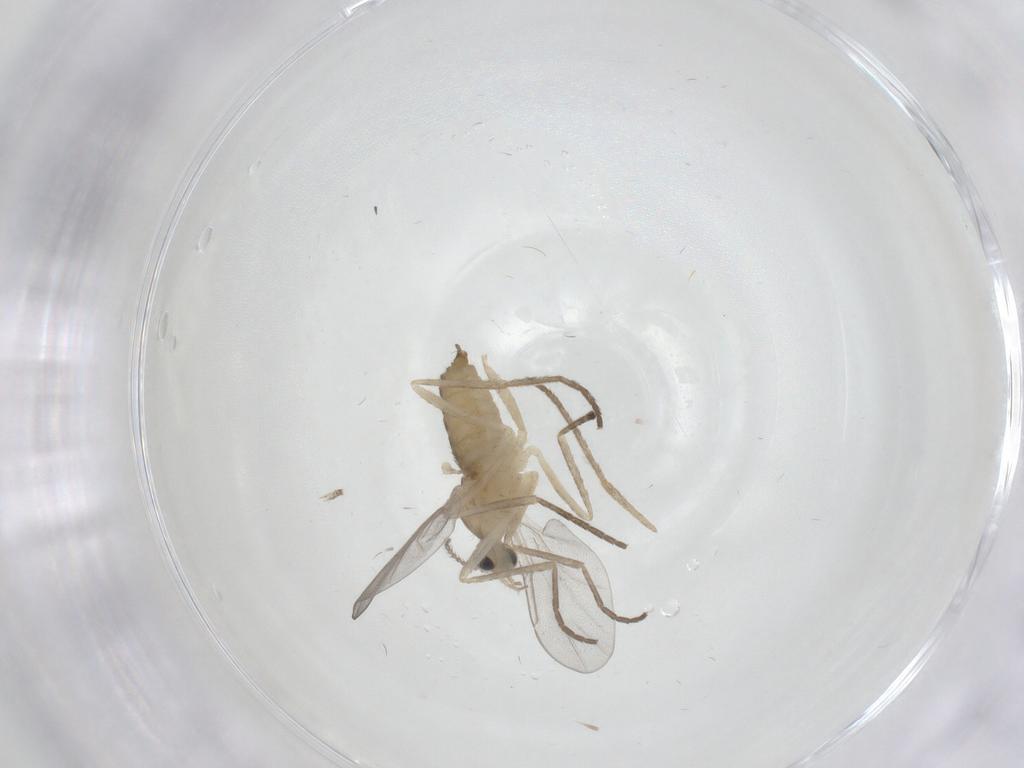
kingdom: Animalia
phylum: Arthropoda
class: Insecta
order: Diptera
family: Cecidomyiidae
